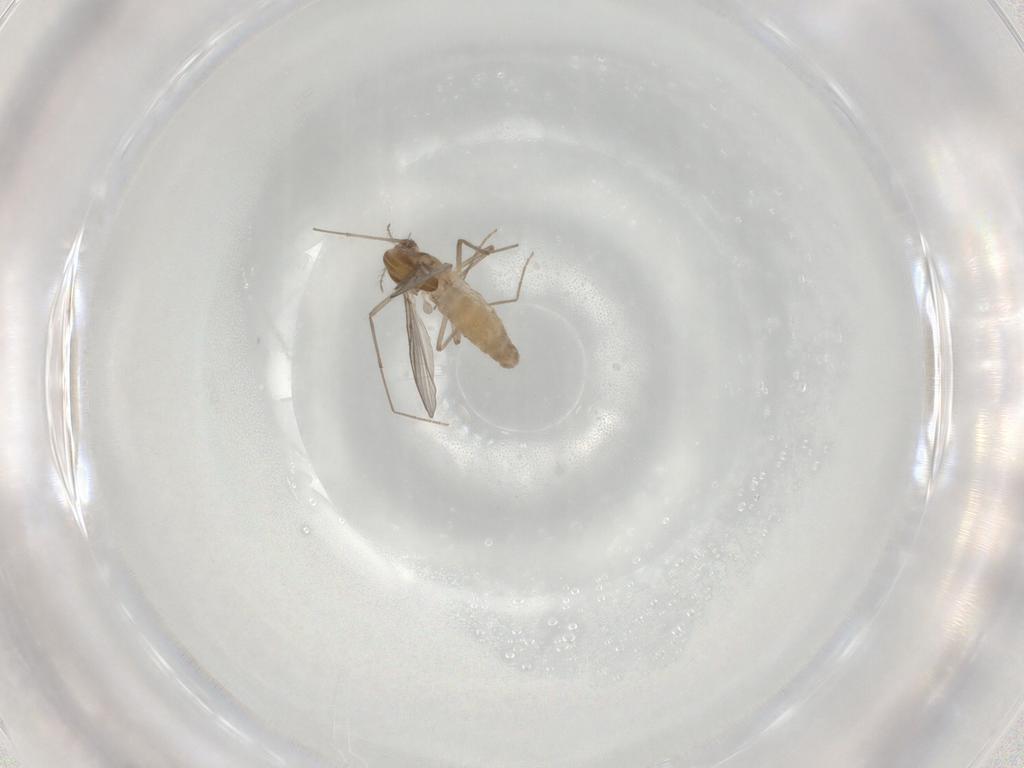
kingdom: Animalia
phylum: Arthropoda
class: Insecta
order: Diptera
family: Chironomidae
